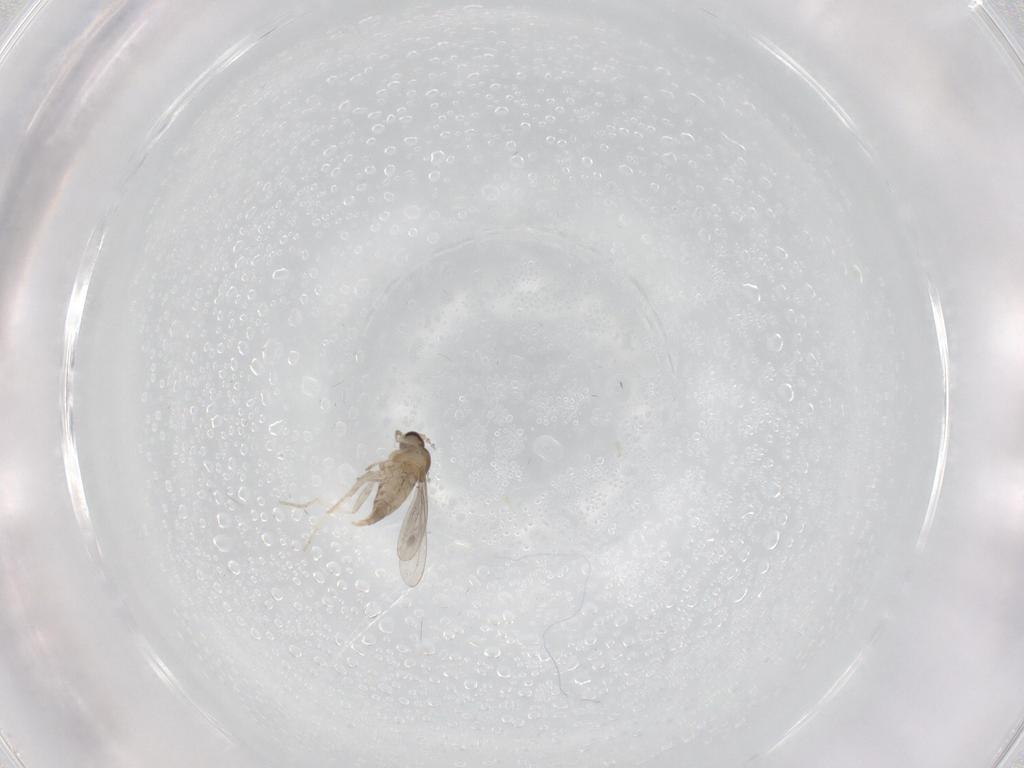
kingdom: Animalia
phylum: Arthropoda
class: Insecta
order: Diptera
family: Cecidomyiidae
